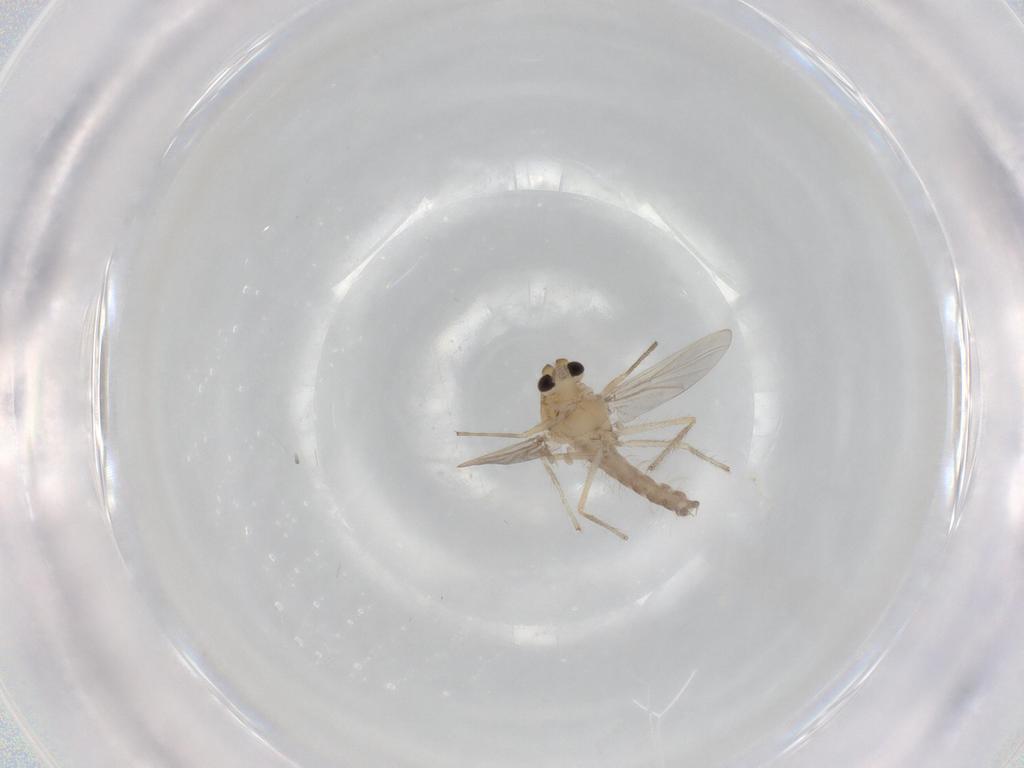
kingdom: Animalia
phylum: Arthropoda
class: Insecta
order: Diptera
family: Chironomidae
